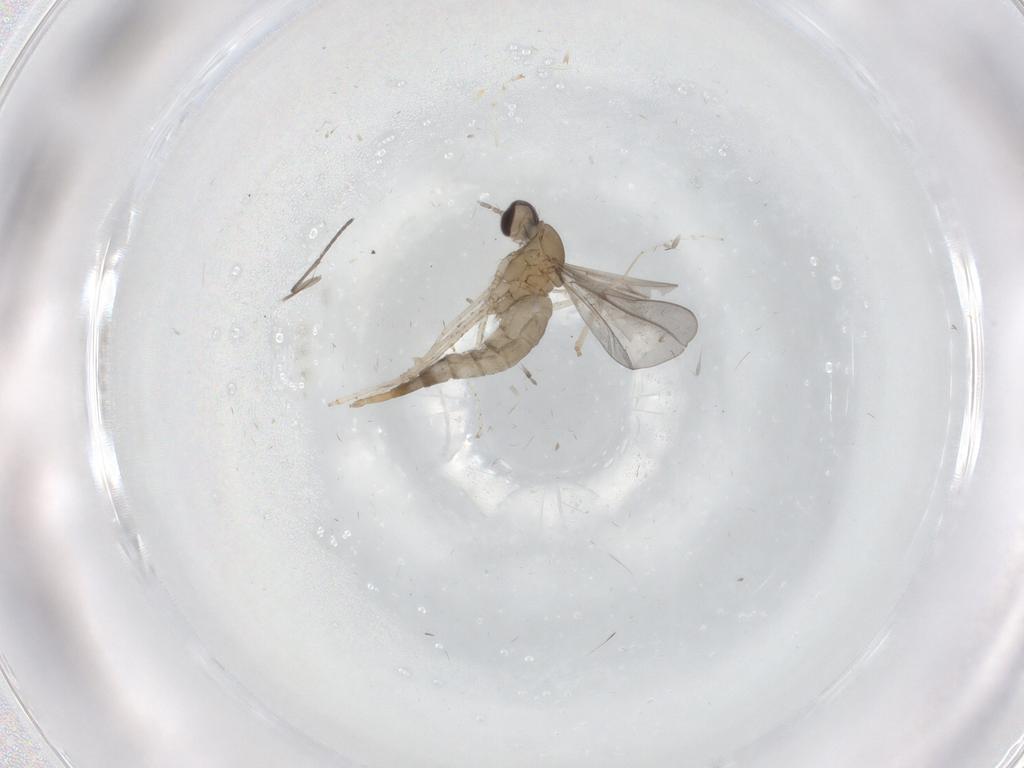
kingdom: Animalia
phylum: Arthropoda
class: Insecta
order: Diptera
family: Cecidomyiidae
